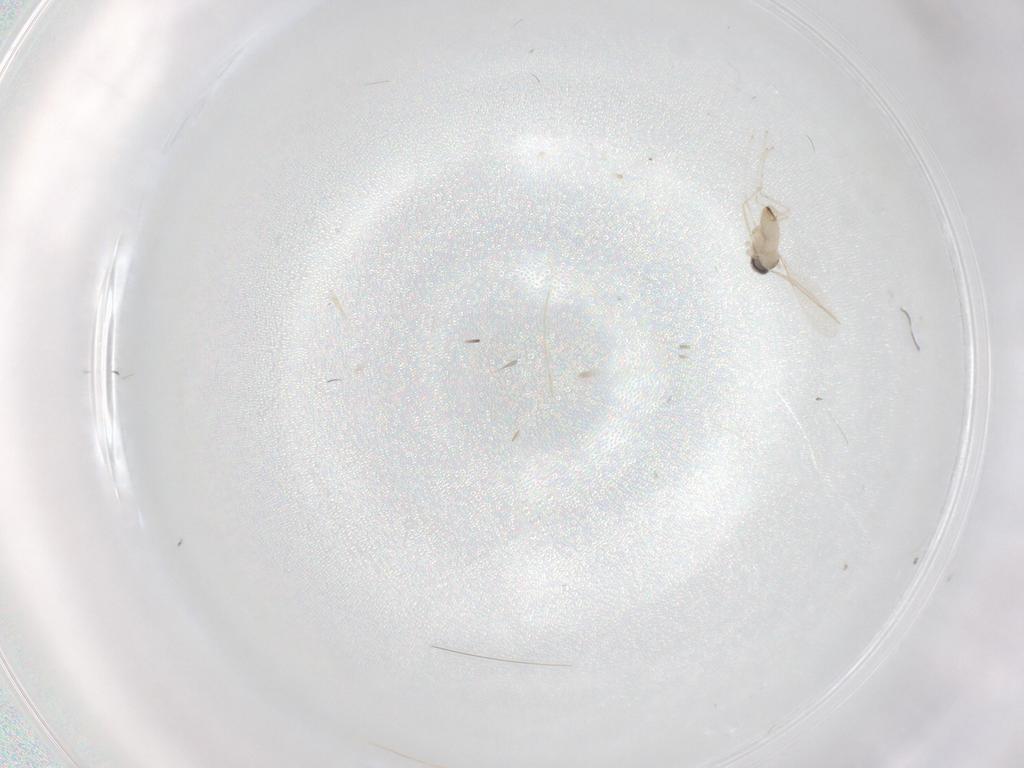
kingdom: Animalia
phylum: Arthropoda
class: Insecta
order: Diptera
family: Cecidomyiidae
